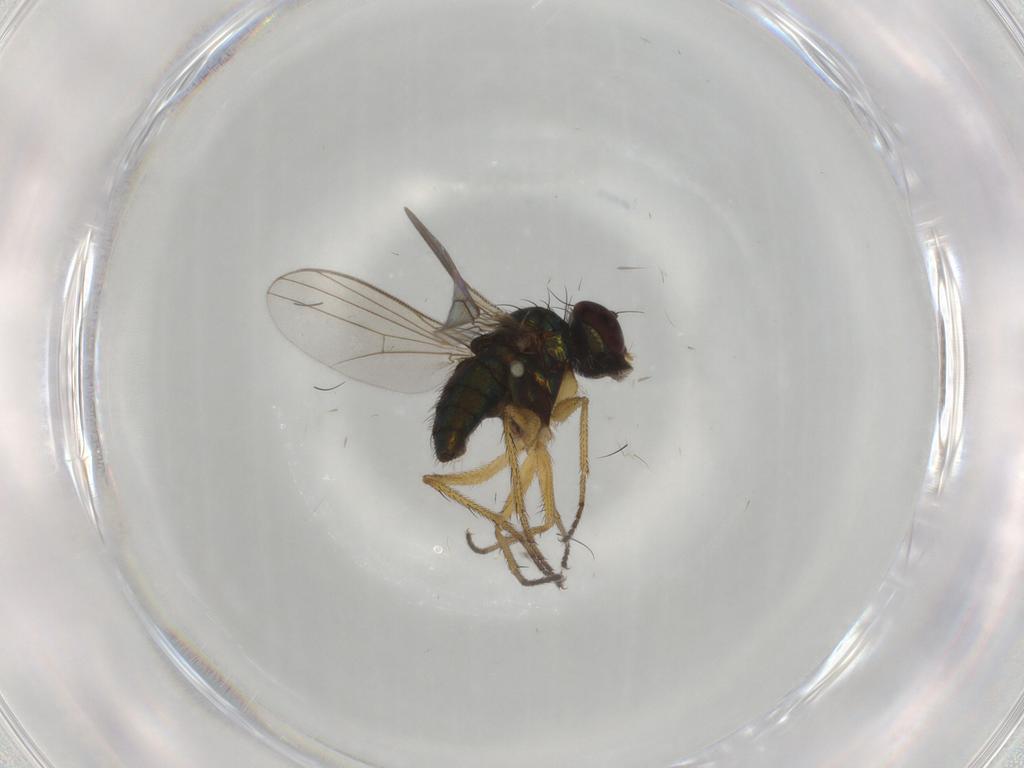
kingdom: Animalia
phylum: Arthropoda
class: Insecta
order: Diptera
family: Dolichopodidae
